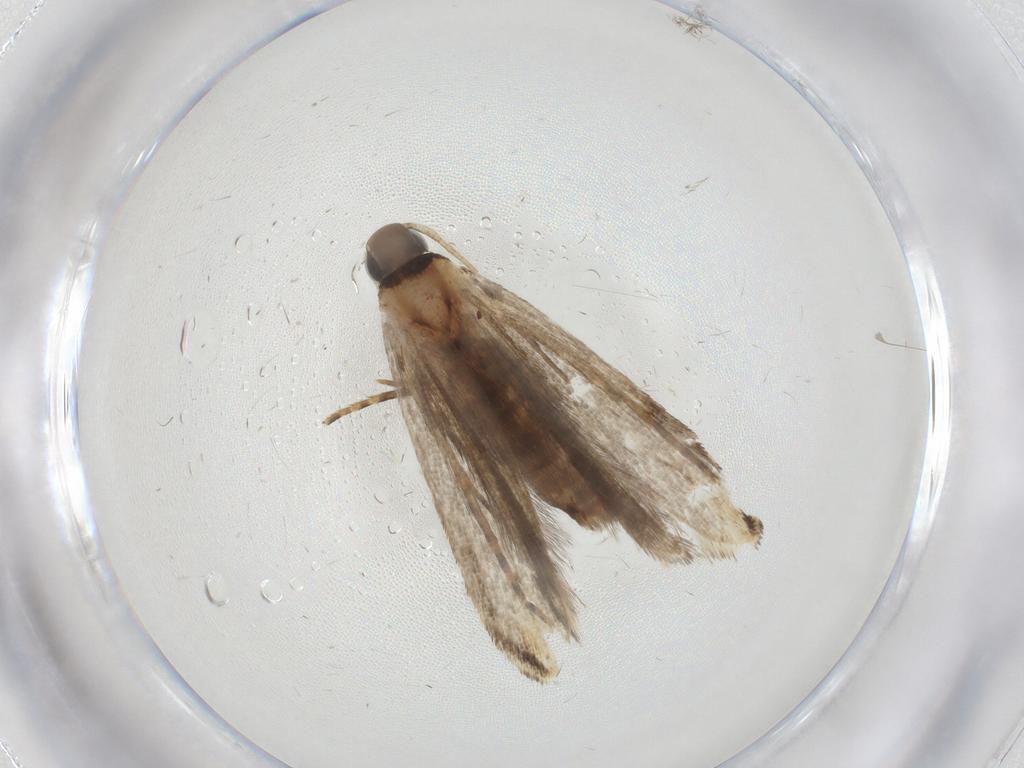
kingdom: Animalia
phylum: Arthropoda
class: Insecta
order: Lepidoptera
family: Gelechiidae
